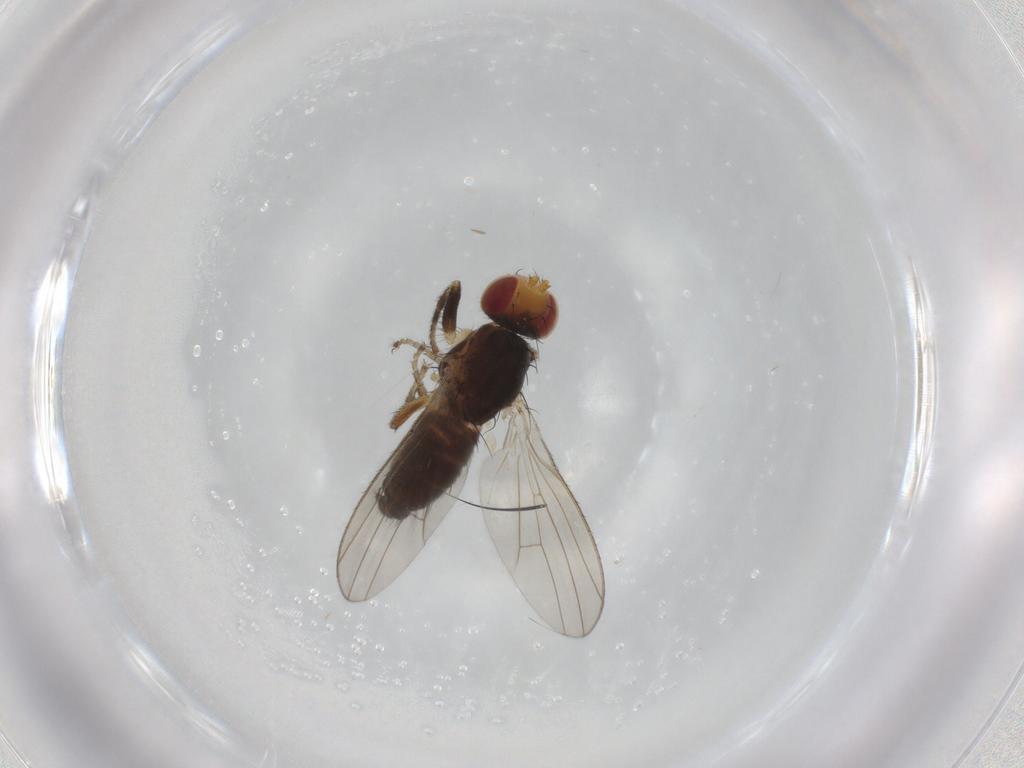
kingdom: Animalia
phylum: Arthropoda
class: Insecta
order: Diptera
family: Heleomyzidae
